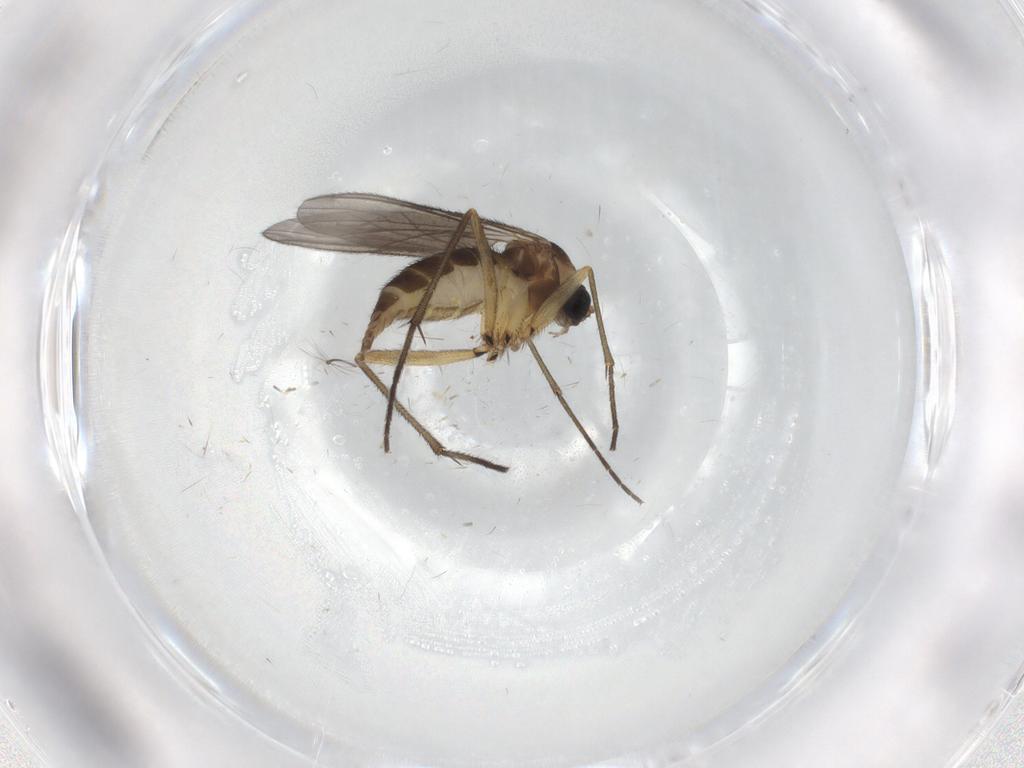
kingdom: Animalia
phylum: Arthropoda
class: Insecta
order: Diptera
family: Sciaridae
